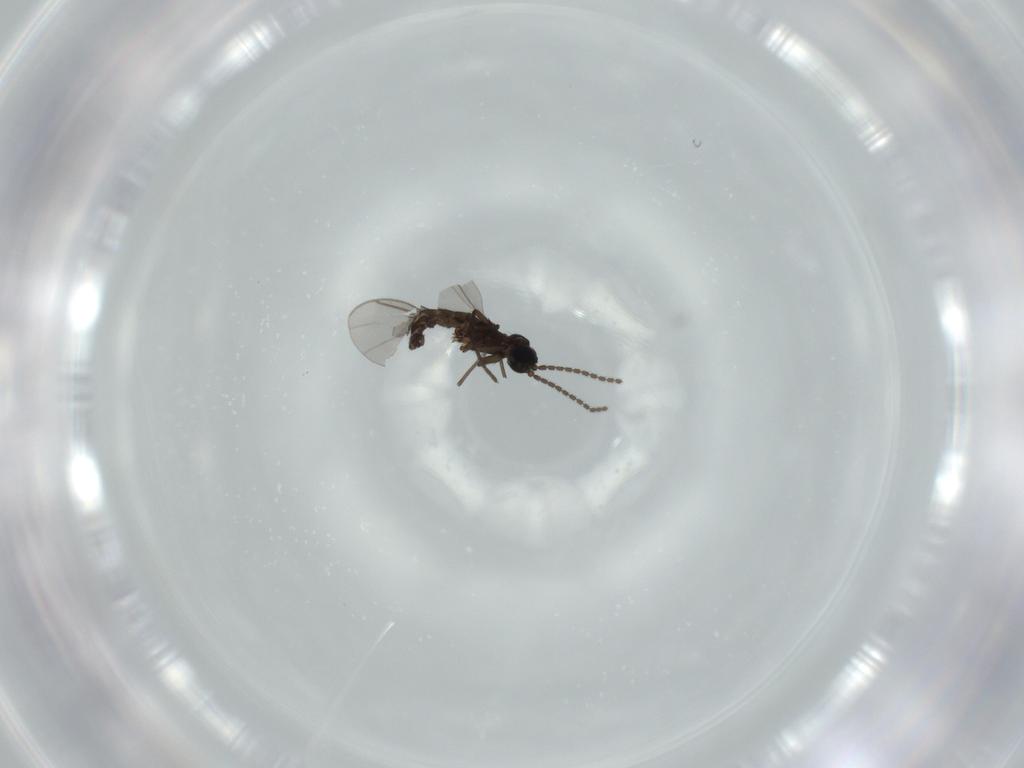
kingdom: Animalia
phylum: Arthropoda
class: Insecta
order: Diptera
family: Sciaridae
